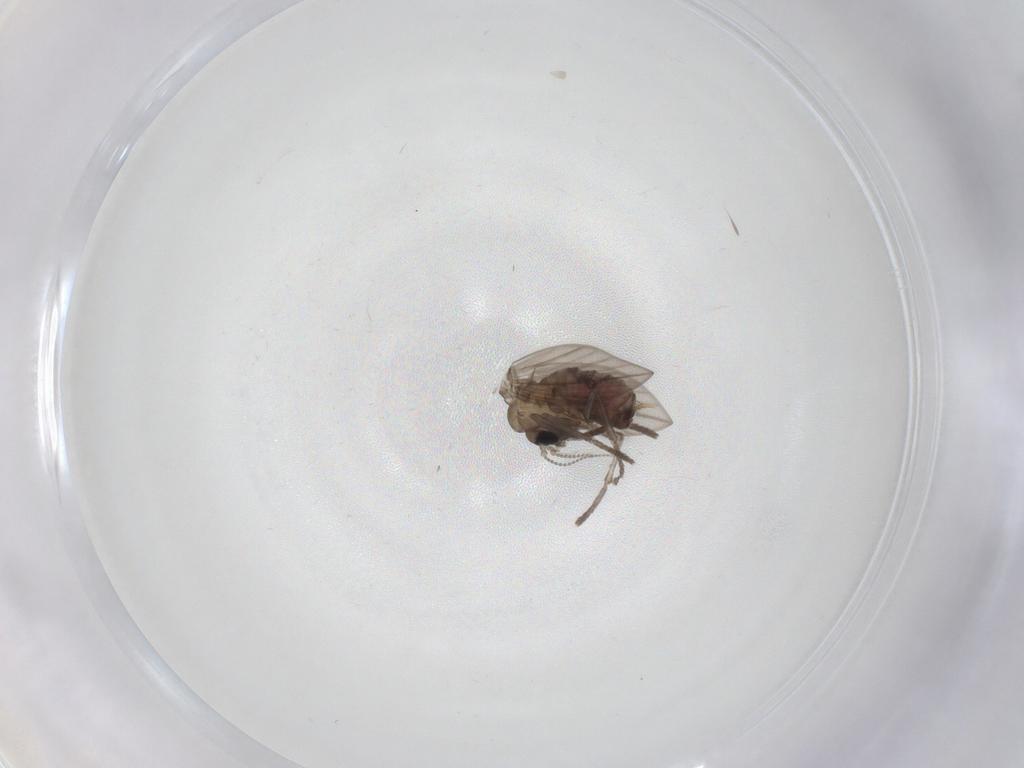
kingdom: Animalia
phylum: Arthropoda
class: Insecta
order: Diptera
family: Psychodidae
